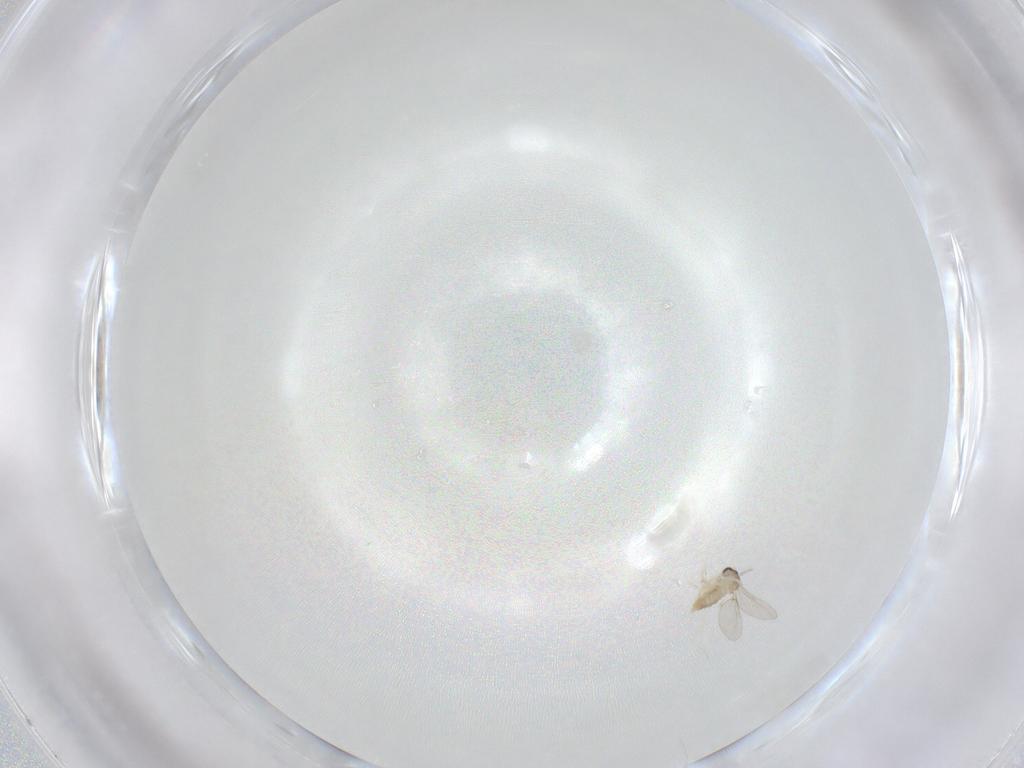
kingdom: Animalia
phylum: Arthropoda
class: Insecta
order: Diptera
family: Cecidomyiidae
